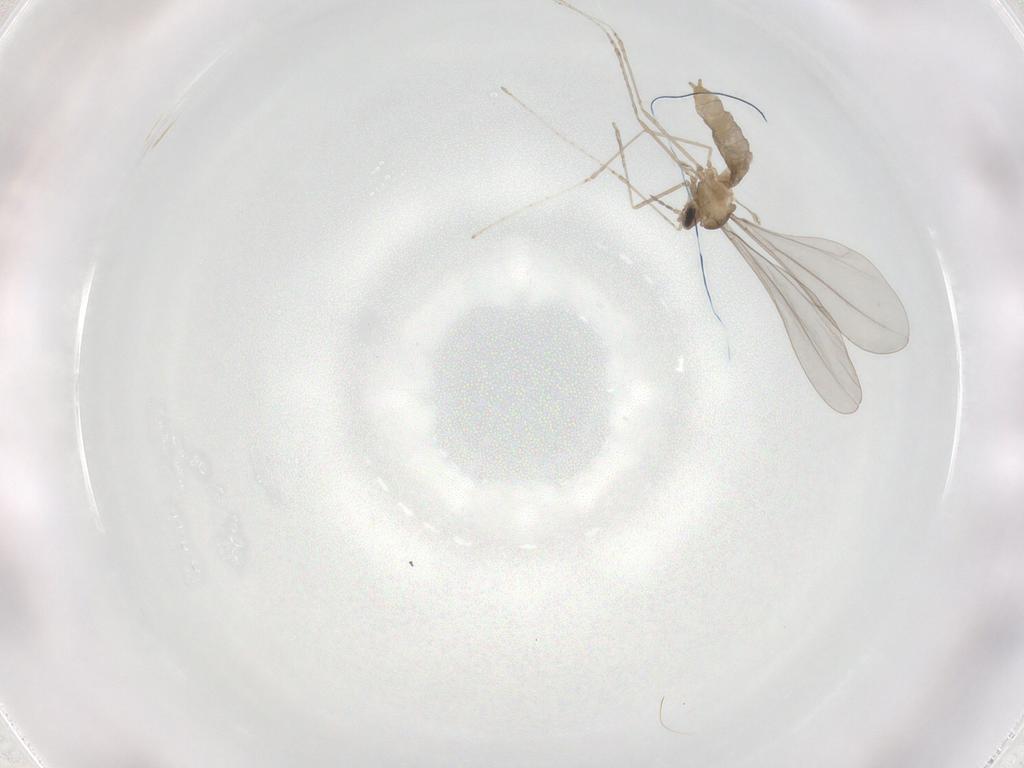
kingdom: Animalia
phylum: Arthropoda
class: Insecta
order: Diptera
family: Cecidomyiidae
